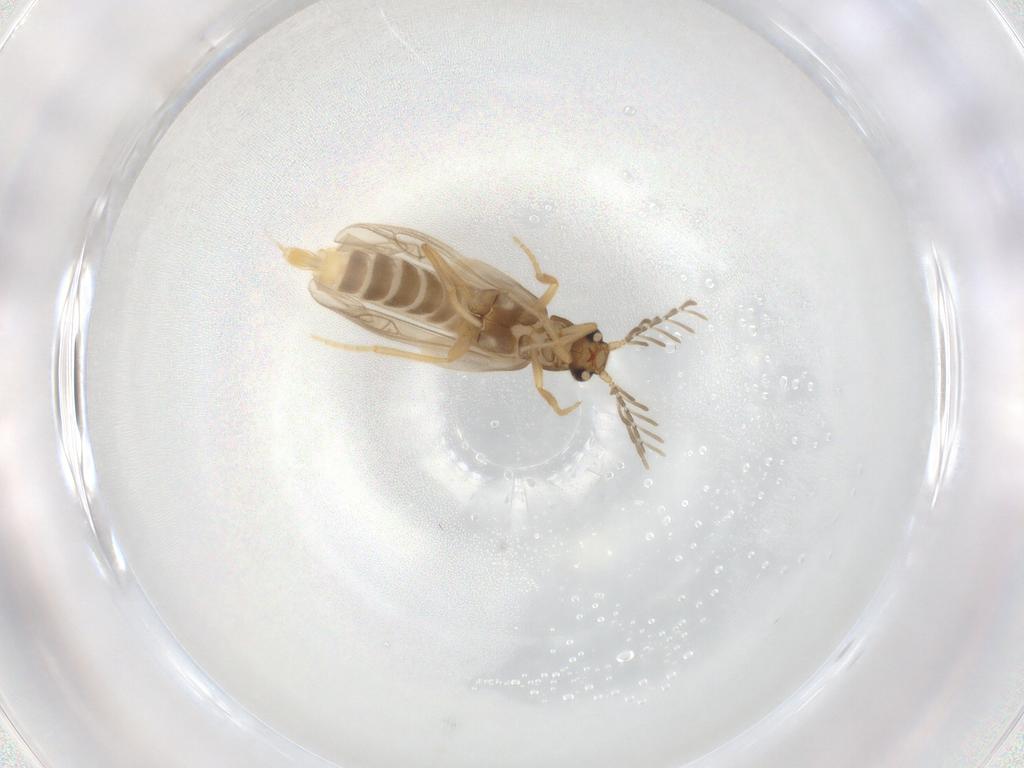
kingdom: Animalia
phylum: Arthropoda
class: Insecta
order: Coleoptera
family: Phengodidae
